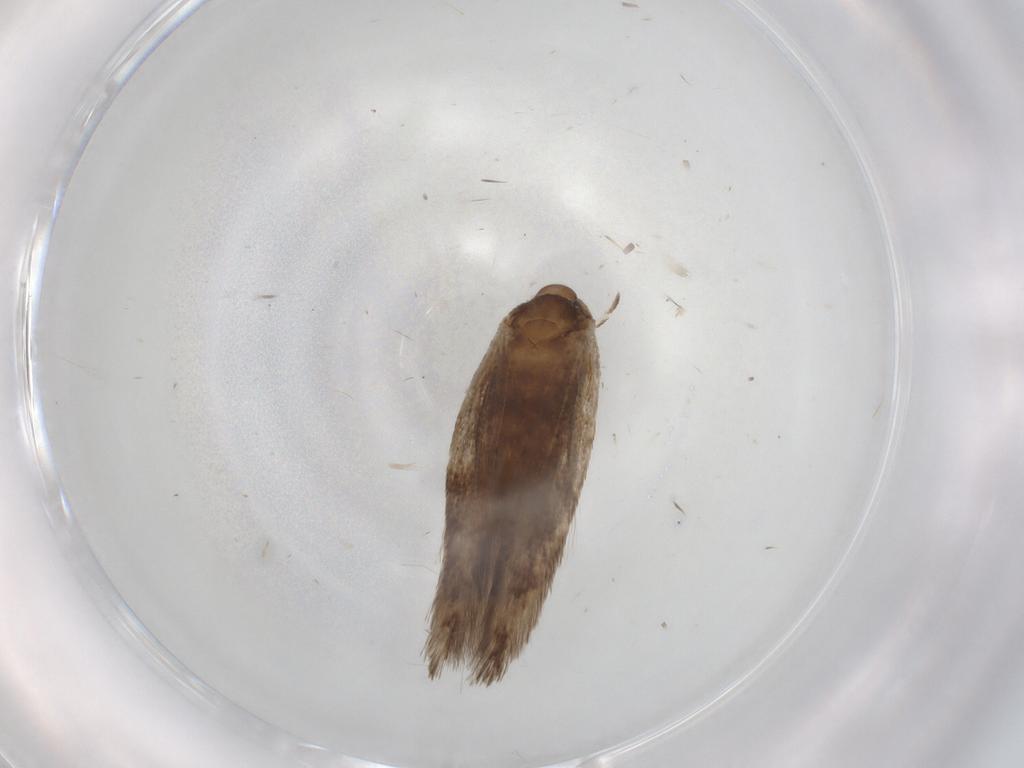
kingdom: Animalia
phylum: Arthropoda
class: Insecta
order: Lepidoptera
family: Cosmopterigidae
